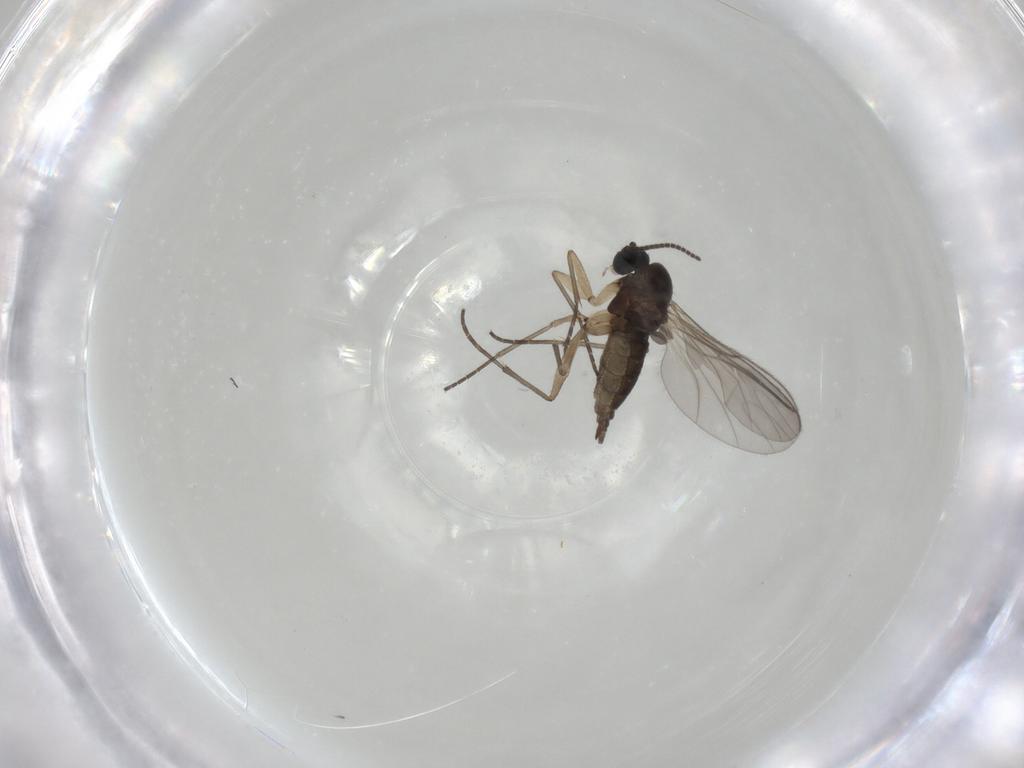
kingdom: Animalia
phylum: Arthropoda
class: Insecta
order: Diptera
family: Sciaridae
